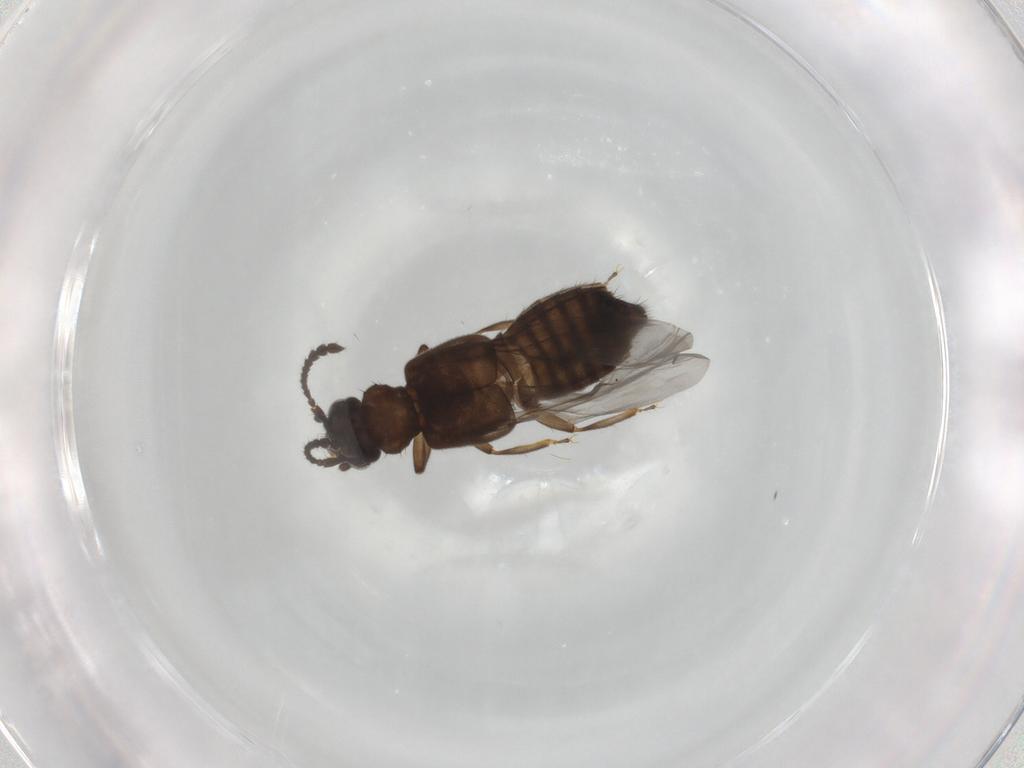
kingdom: Animalia
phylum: Arthropoda
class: Insecta
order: Coleoptera
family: Staphylinidae
